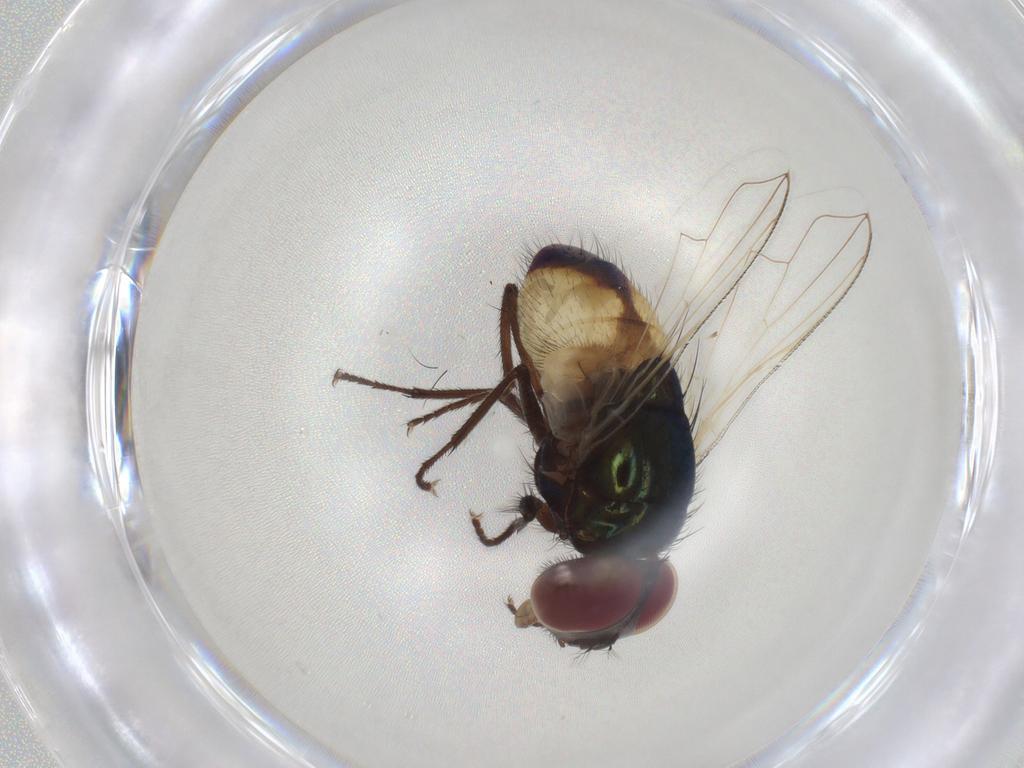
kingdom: Animalia
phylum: Arthropoda
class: Insecta
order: Diptera
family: Muscidae
